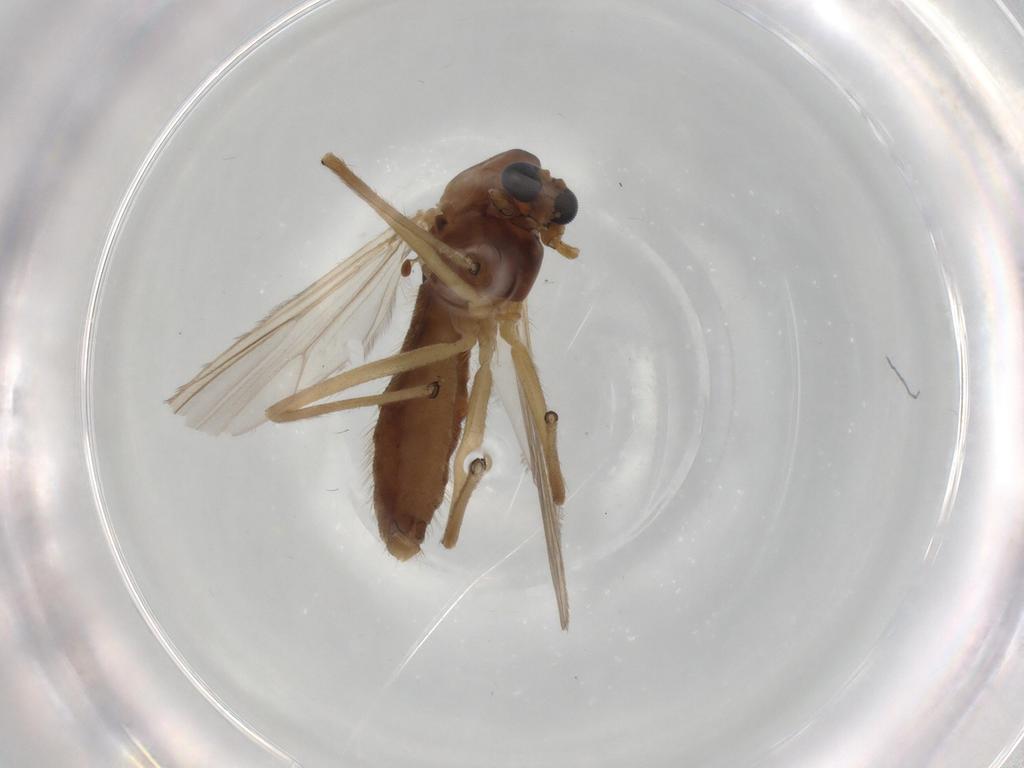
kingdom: Animalia
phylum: Arthropoda
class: Insecta
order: Diptera
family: Chironomidae
